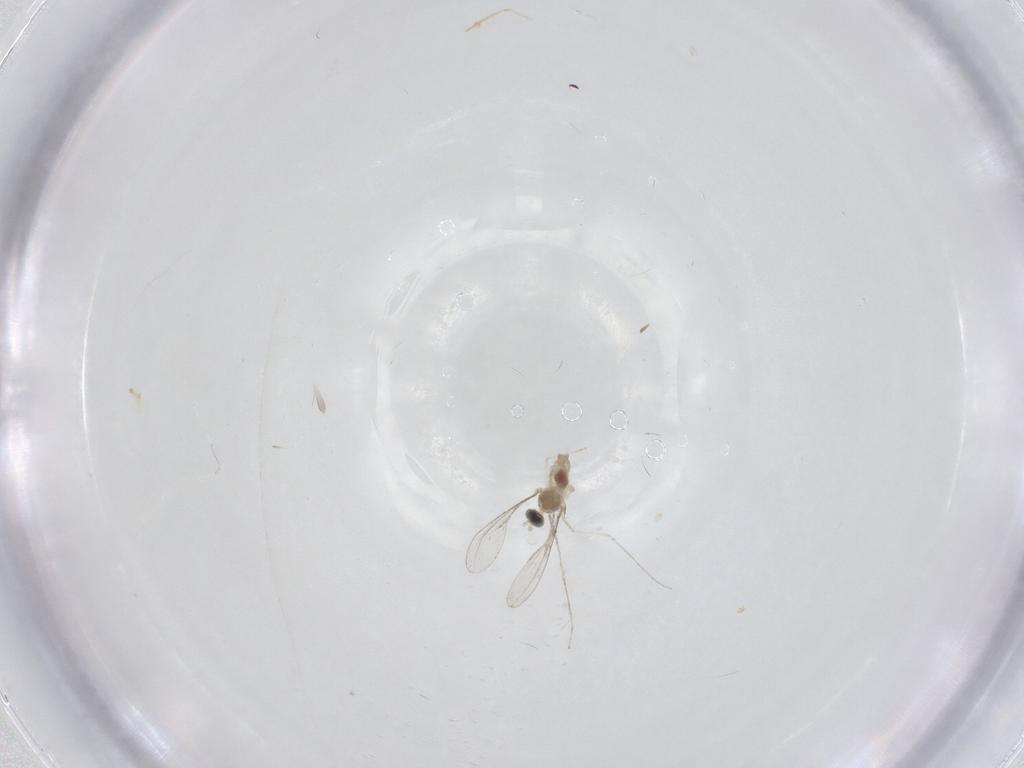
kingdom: Animalia
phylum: Arthropoda
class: Insecta
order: Diptera
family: Cecidomyiidae
